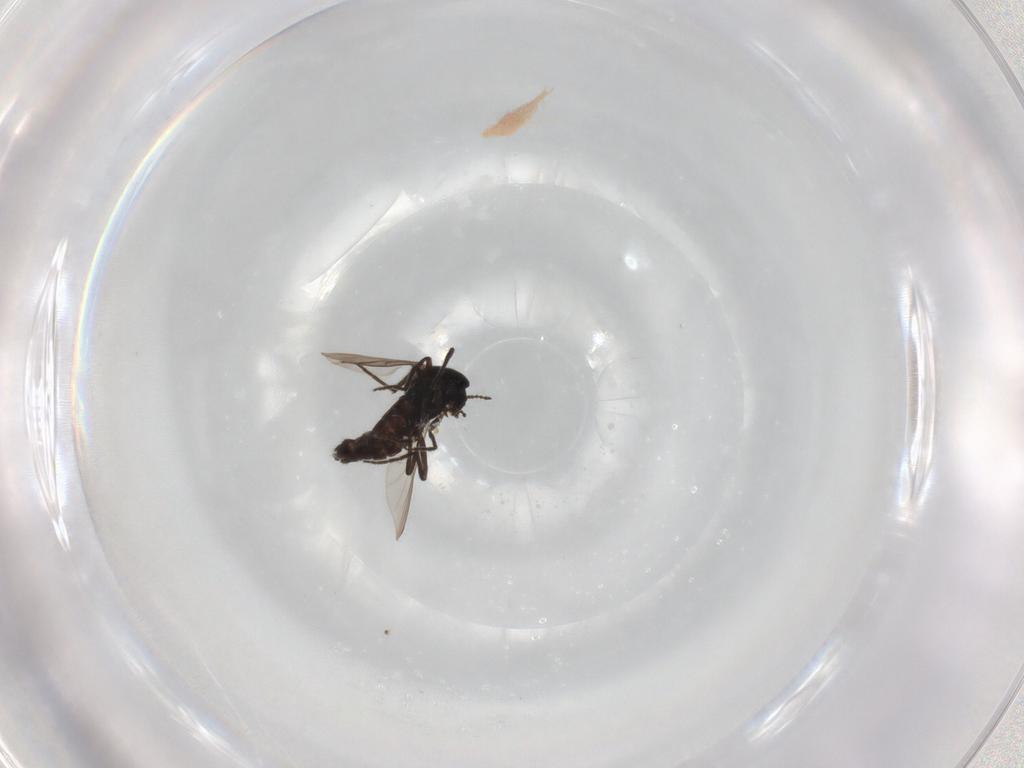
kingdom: Animalia
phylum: Arthropoda
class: Insecta
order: Diptera
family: Chironomidae
